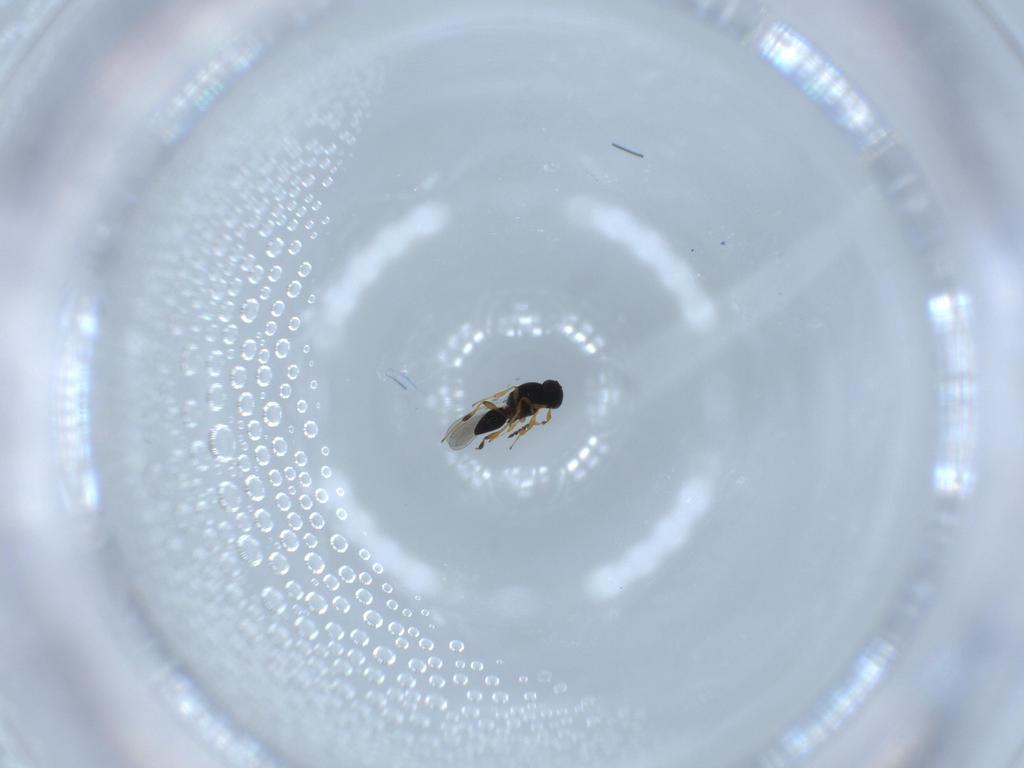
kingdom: Animalia
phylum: Arthropoda
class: Insecta
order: Hymenoptera
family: Platygastridae
